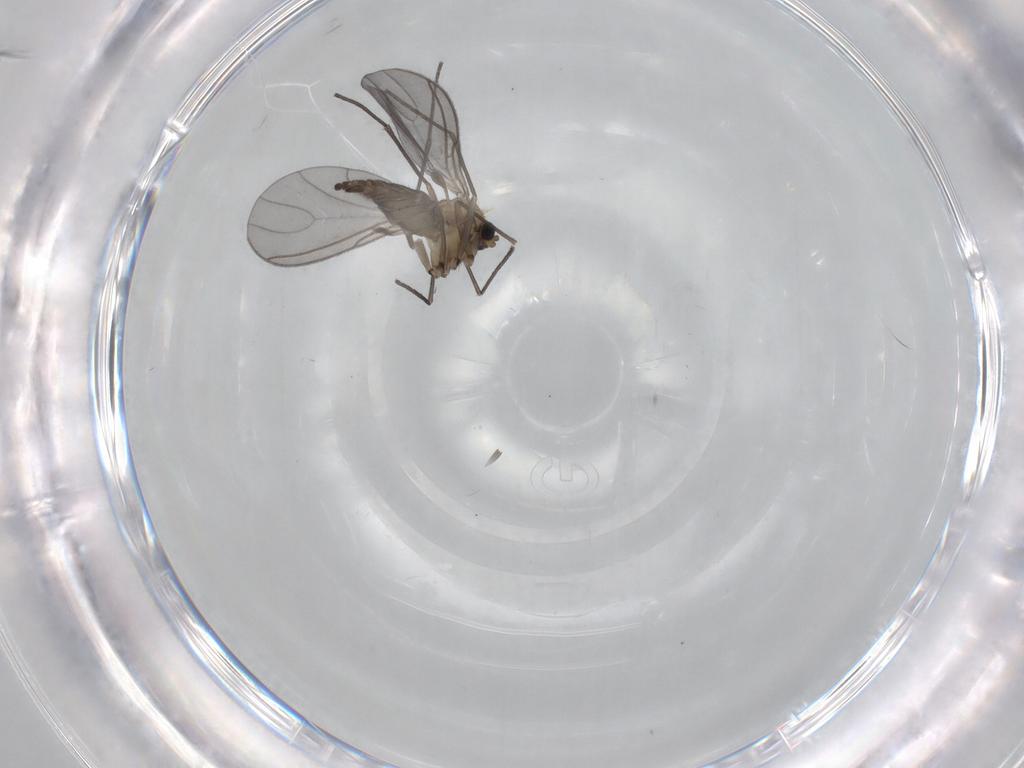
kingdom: Animalia
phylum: Arthropoda
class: Insecta
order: Diptera
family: Sciaridae
